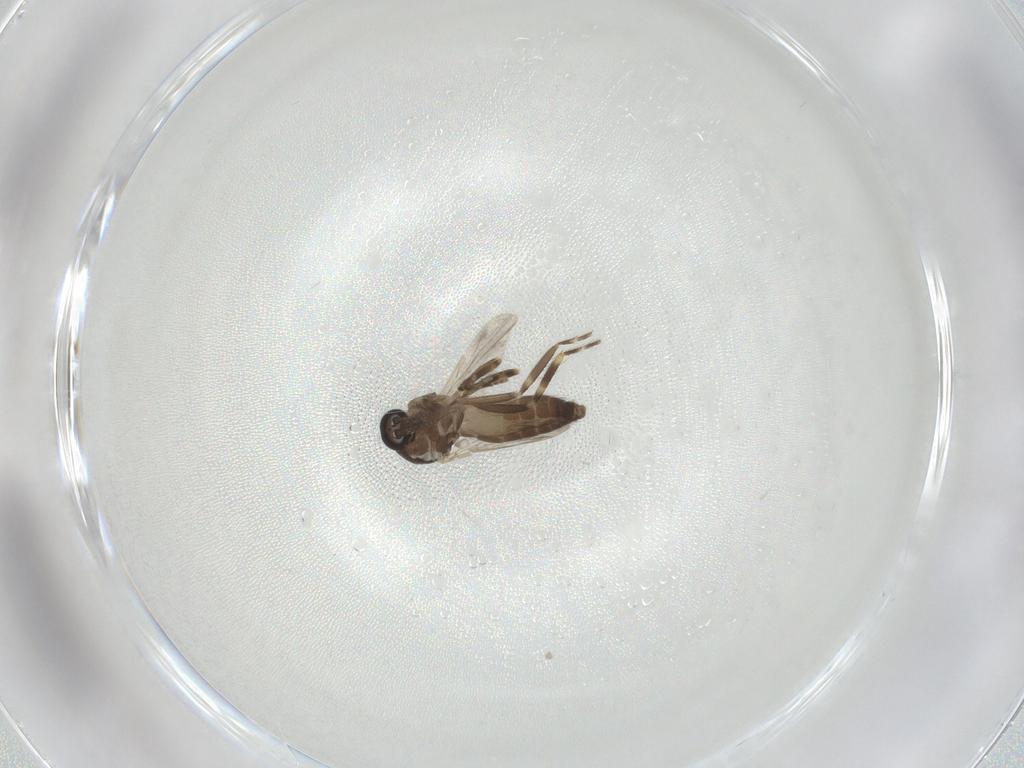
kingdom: Animalia
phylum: Arthropoda
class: Insecta
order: Diptera
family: Ceratopogonidae
